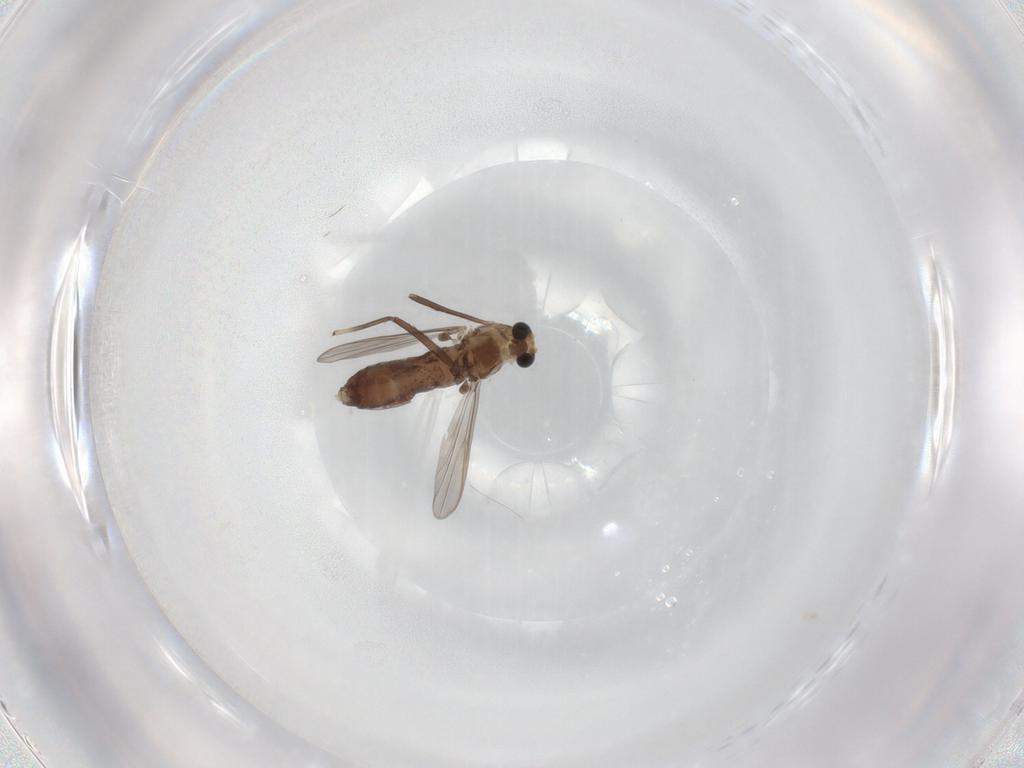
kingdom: Animalia
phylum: Arthropoda
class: Insecta
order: Diptera
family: Chironomidae
